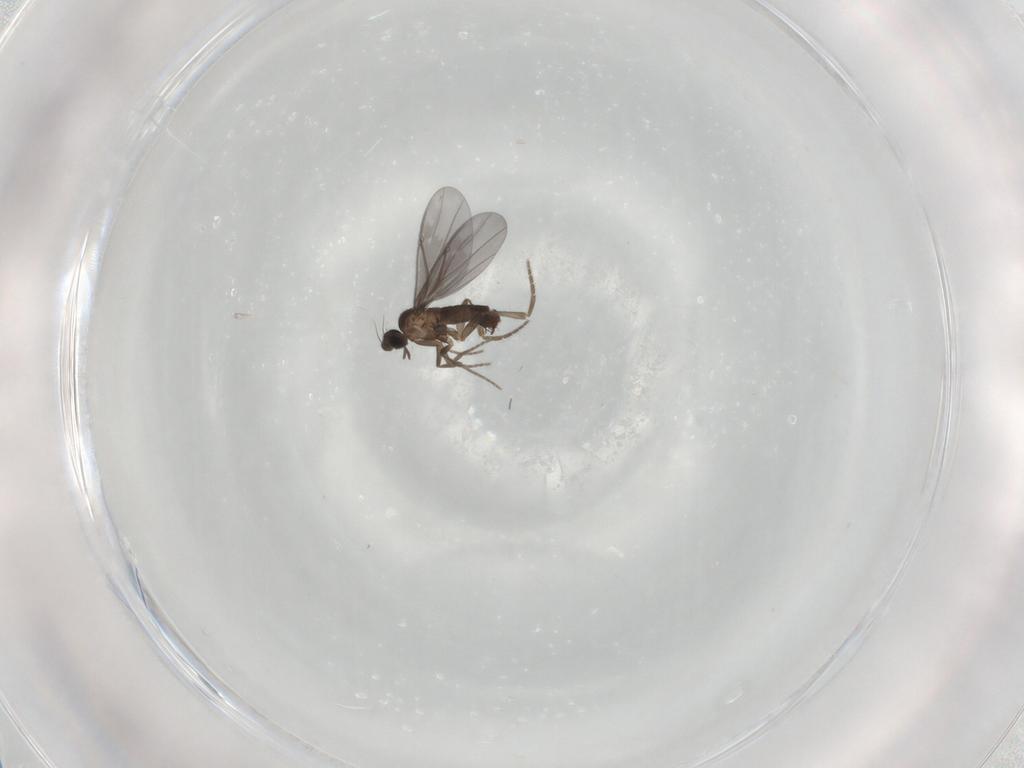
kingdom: Animalia
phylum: Arthropoda
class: Insecta
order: Diptera
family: Phoridae
